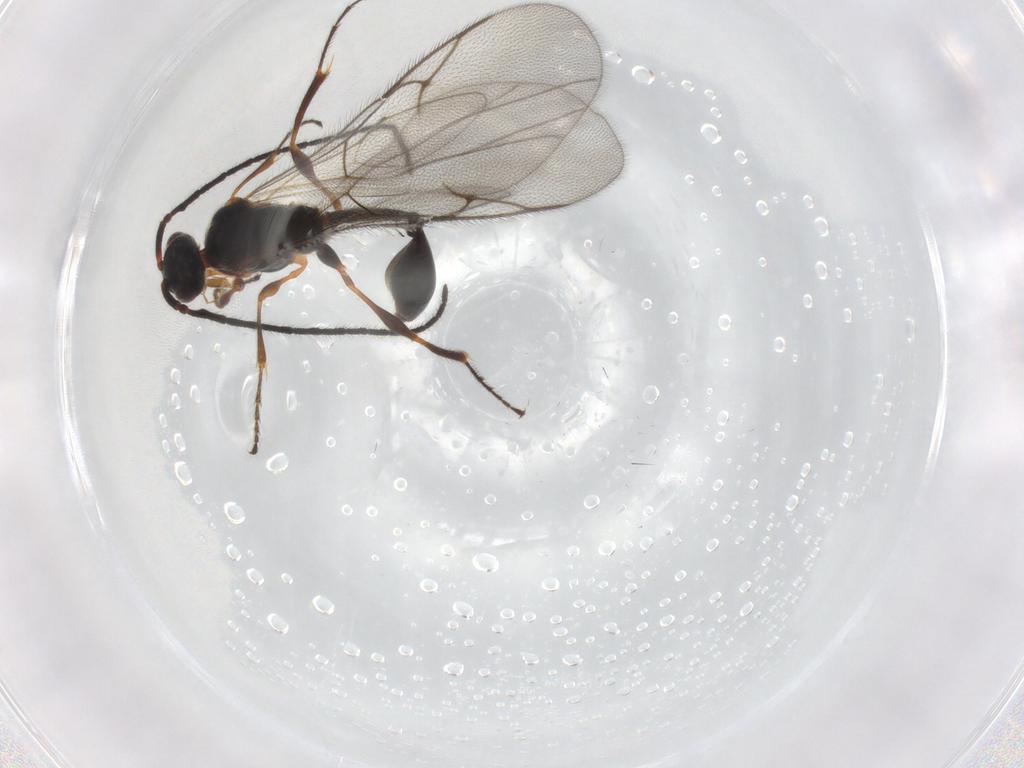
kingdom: Animalia
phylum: Arthropoda
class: Insecta
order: Hymenoptera
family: Diapriidae
